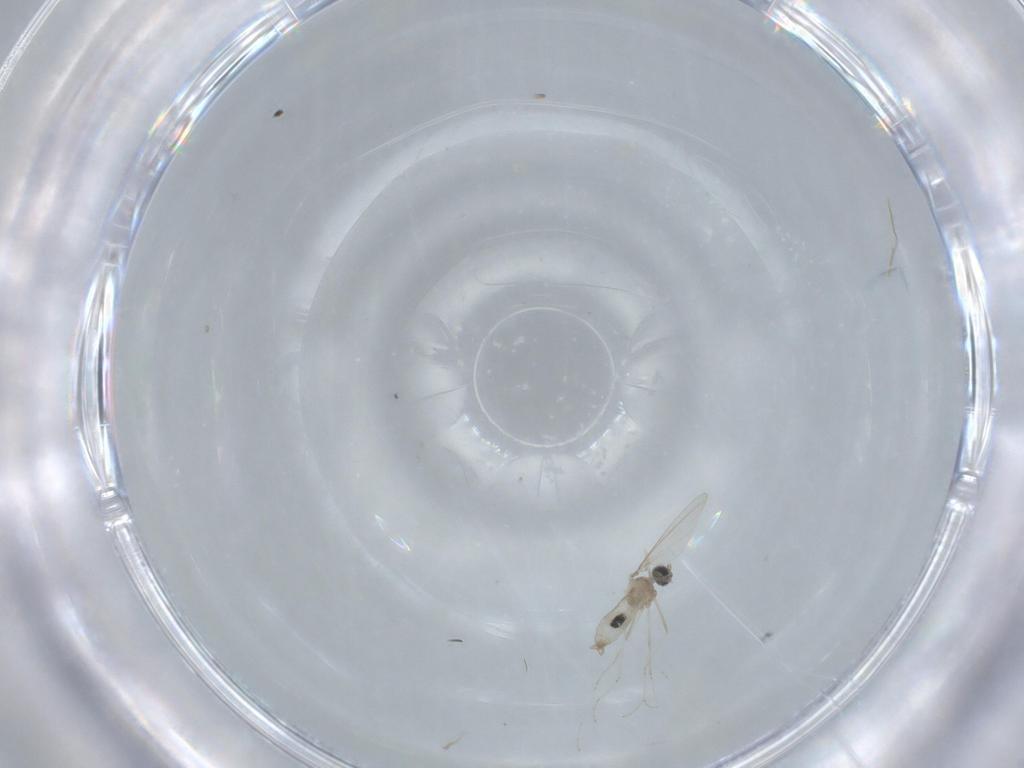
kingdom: Animalia
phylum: Arthropoda
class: Insecta
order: Diptera
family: Cecidomyiidae
